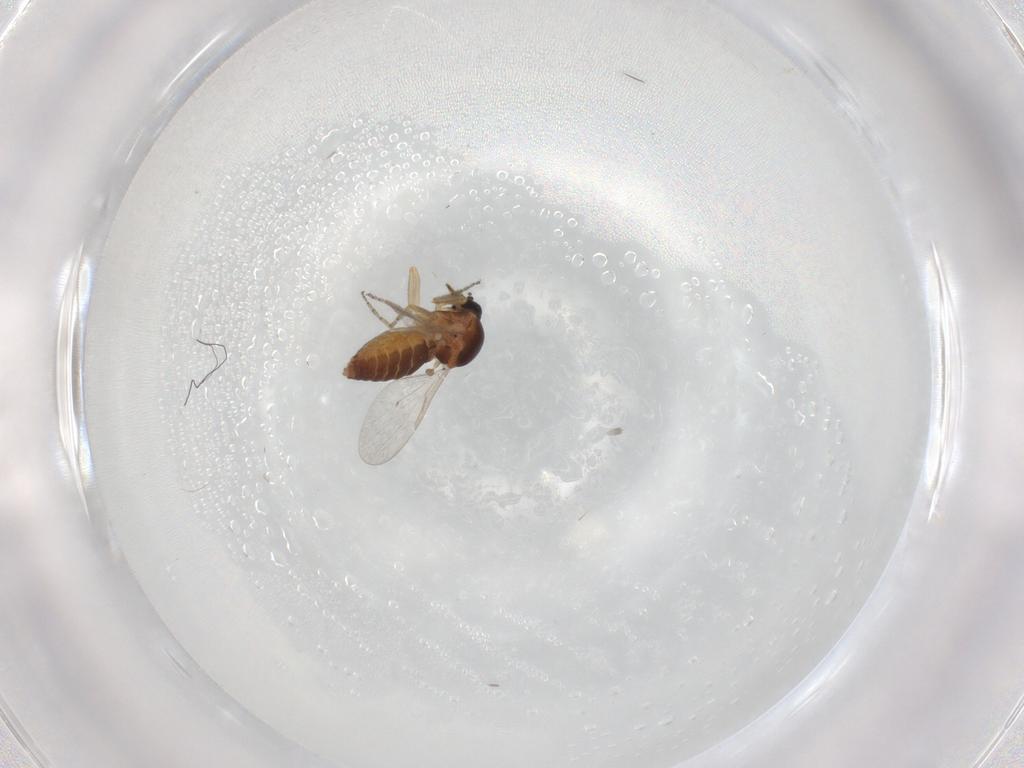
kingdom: Animalia
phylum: Arthropoda
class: Insecta
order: Diptera
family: Ceratopogonidae
